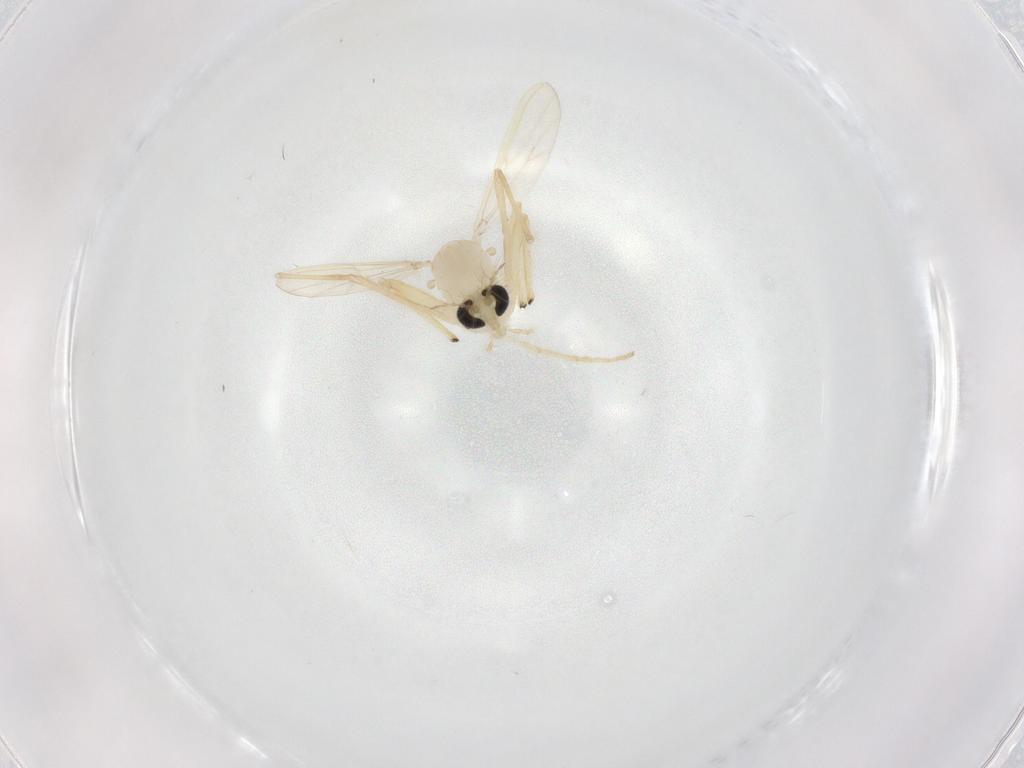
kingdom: Animalia
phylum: Arthropoda
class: Insecta
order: Diptera
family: Chironomidae
